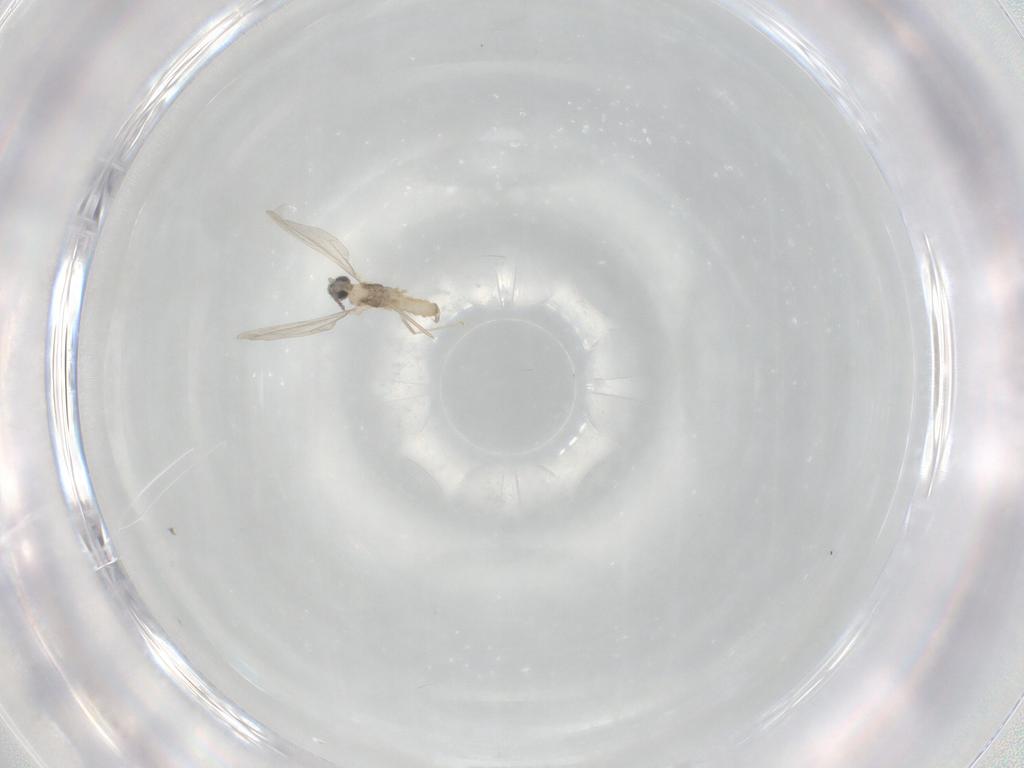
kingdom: Animalia
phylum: Arthropoda
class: Insecta
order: Diptera
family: Cecidomyiidae
